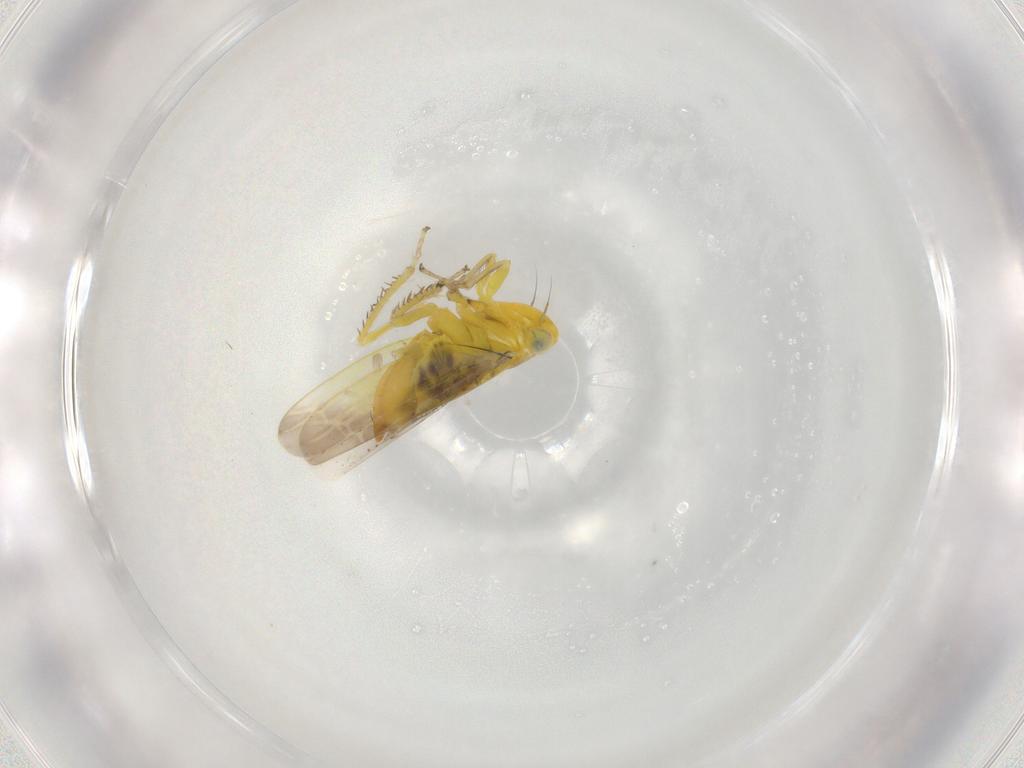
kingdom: Animalia
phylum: Arthropoda
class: Insecta
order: Hemiptera
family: Cicadellidae
